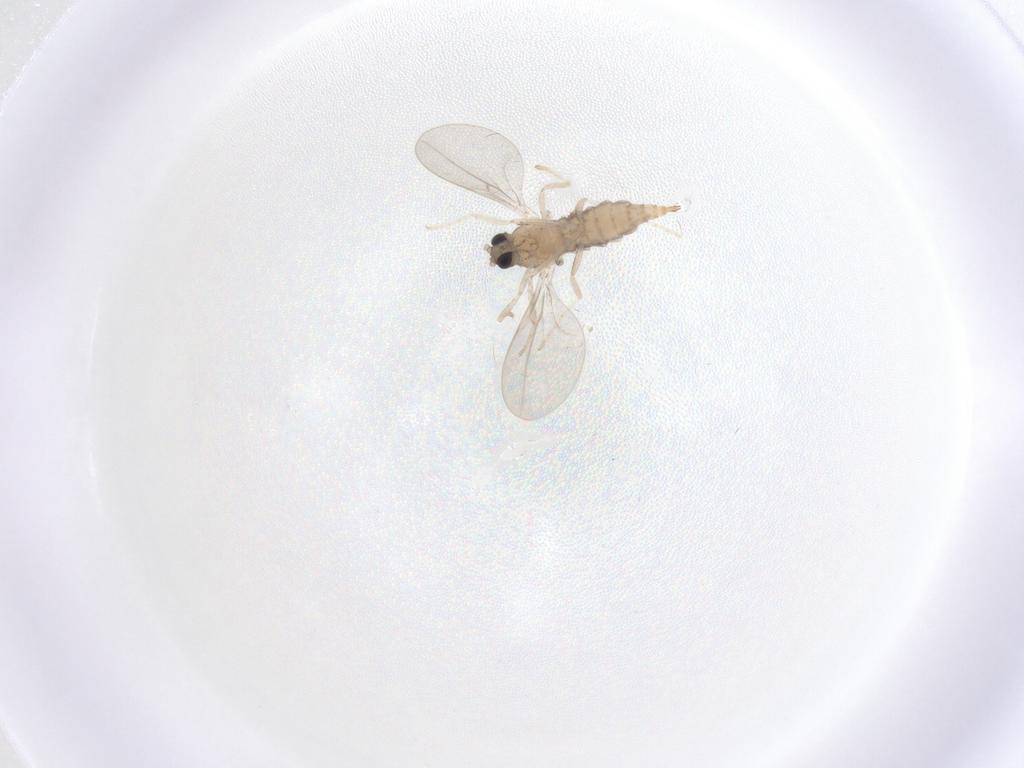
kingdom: Animalia
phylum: Arthropoda
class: Insecta
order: Diptera
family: Cecidomyiidae
